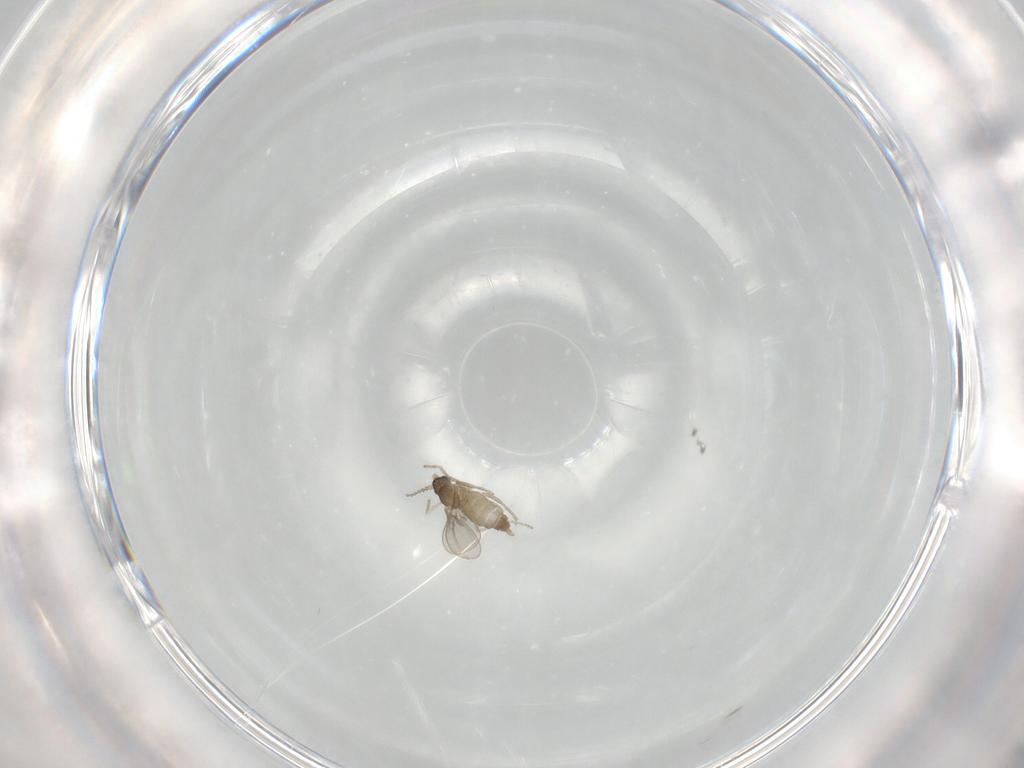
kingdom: Animalia
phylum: Arthropoda
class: Insecta
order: Diptera
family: Cecidomyiidae
